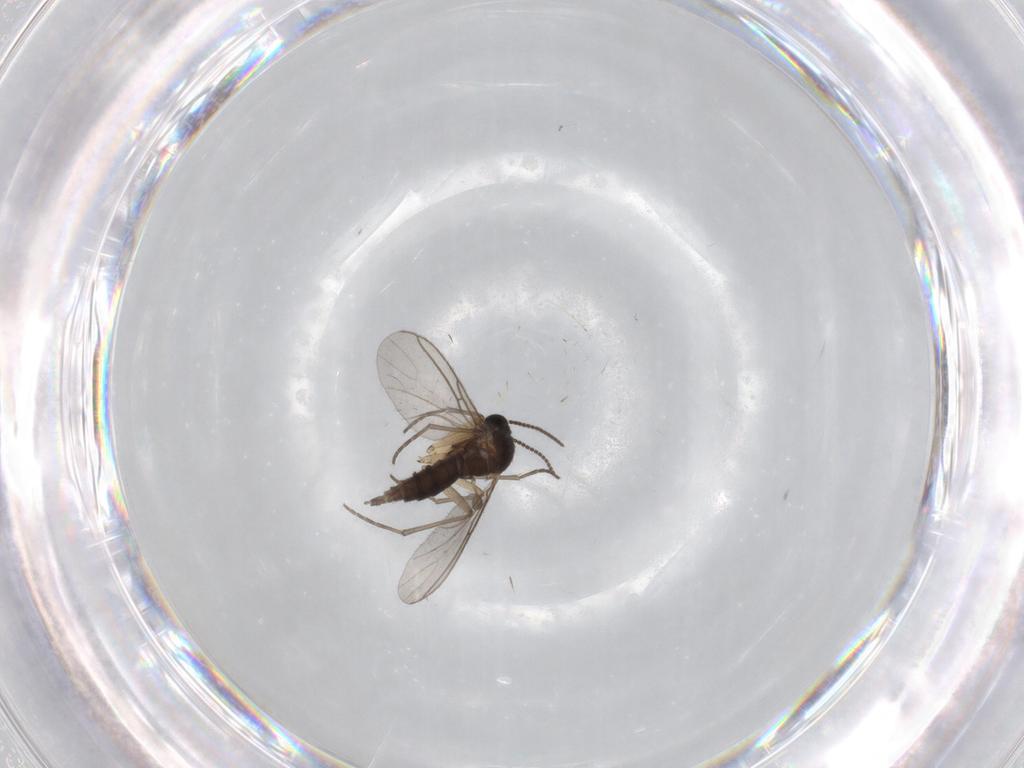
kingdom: Animalia
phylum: Arthropoda
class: Insecta
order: Diptera
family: Sciaridae
